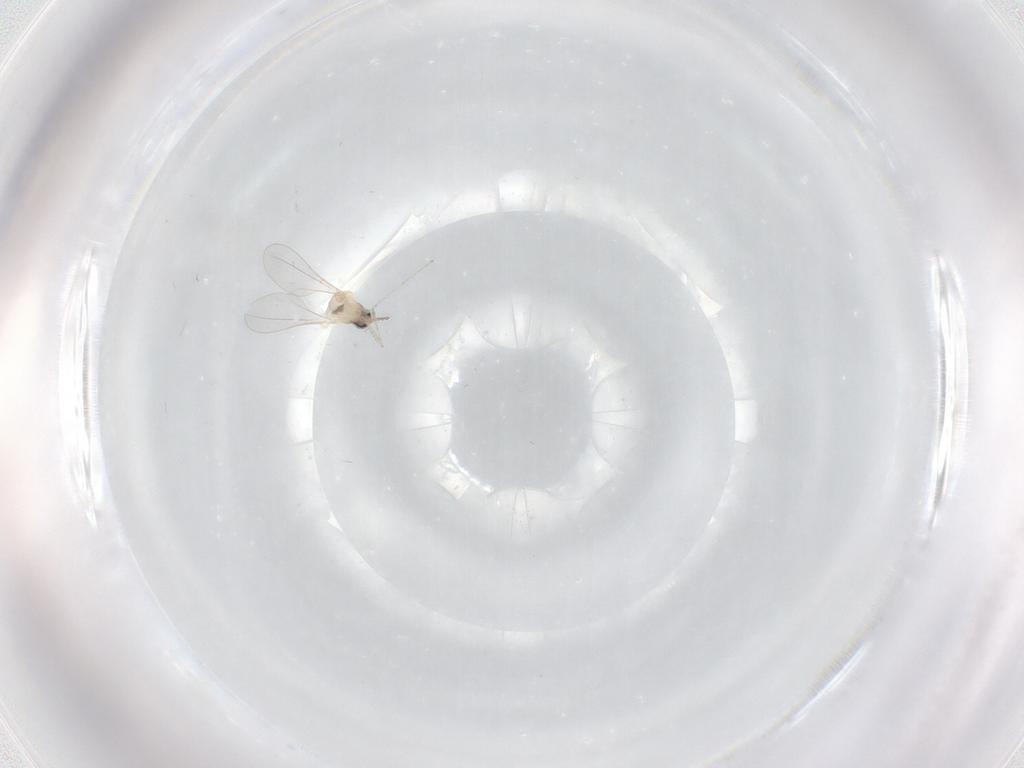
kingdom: Animalia
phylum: Arthropoda
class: Insecta
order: Diptera
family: Cecidomyiidae
